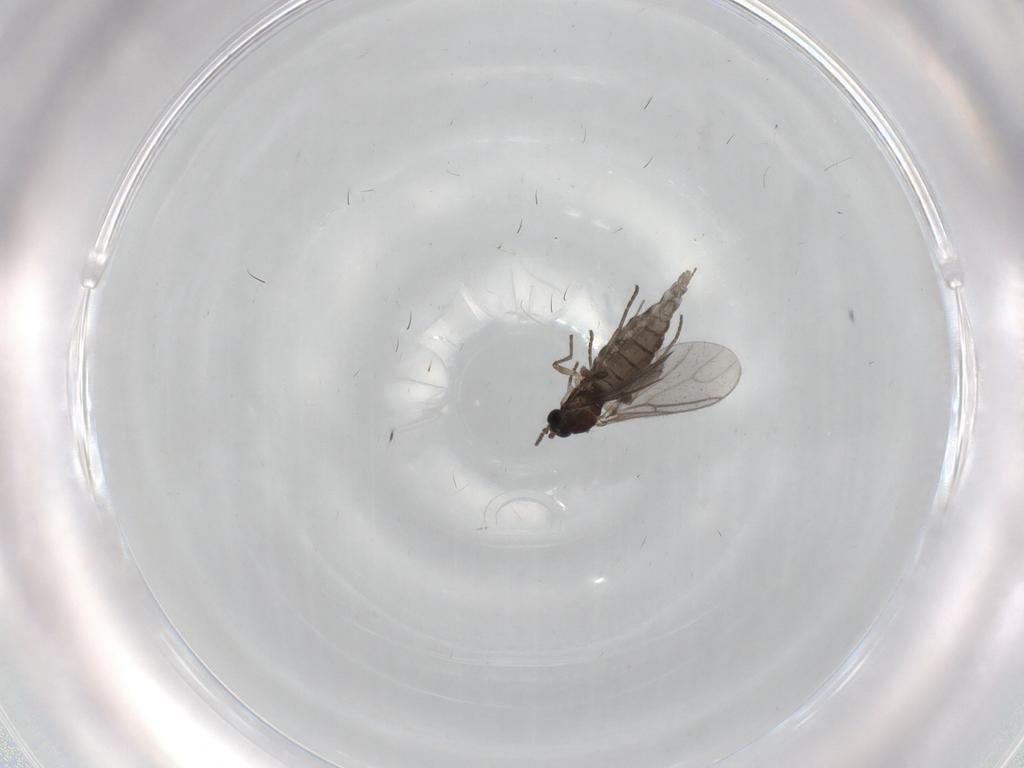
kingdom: Animalia
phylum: Arthropoda
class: Insecta
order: Diptera
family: Sciaridae
